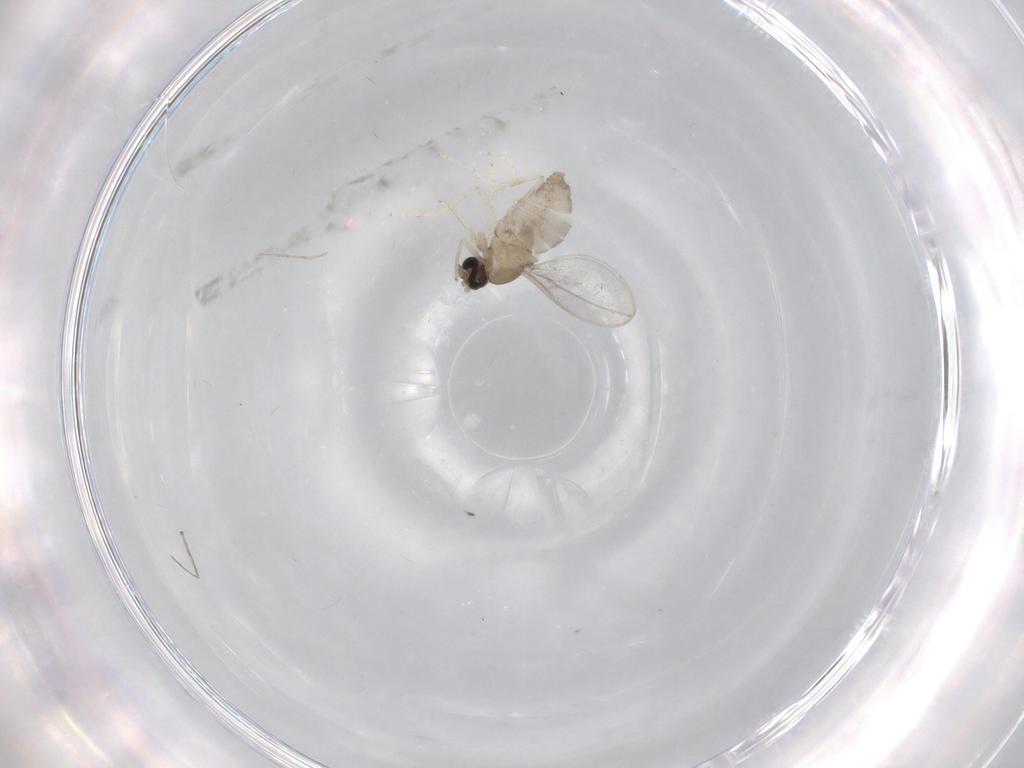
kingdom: Animalia
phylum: Arthropoda
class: Insecta
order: Diptera
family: Cecidomyiidae
